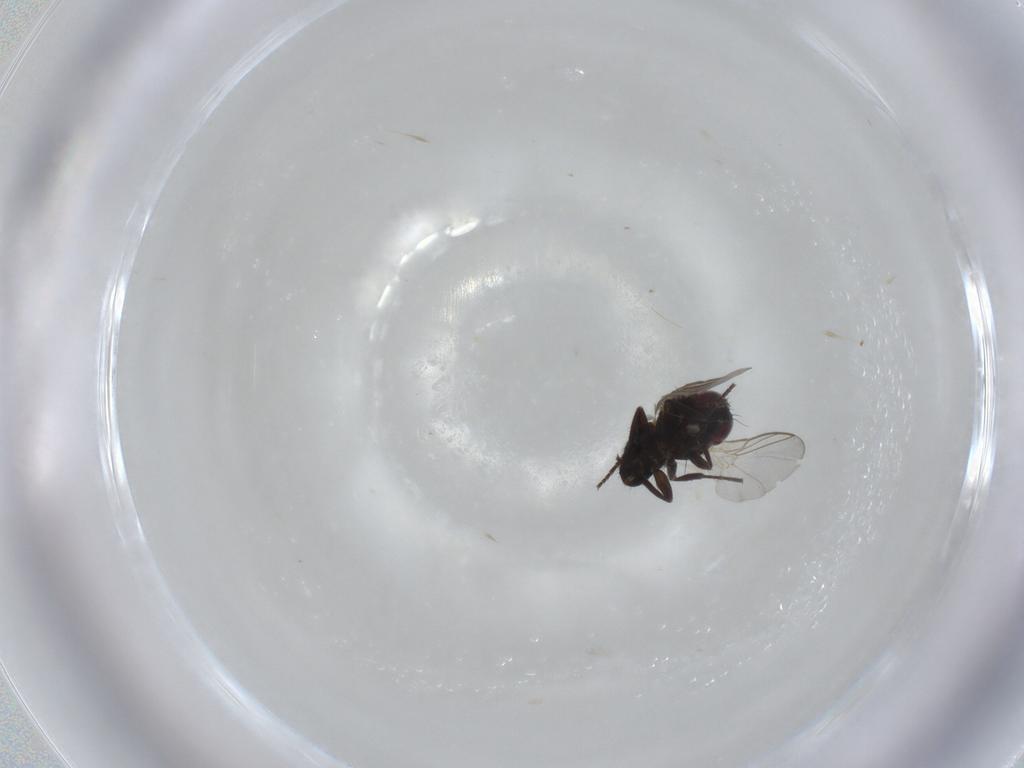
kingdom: Animalia
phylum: Arthropoda
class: Insecta
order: Diptera
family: Agromyzidae
